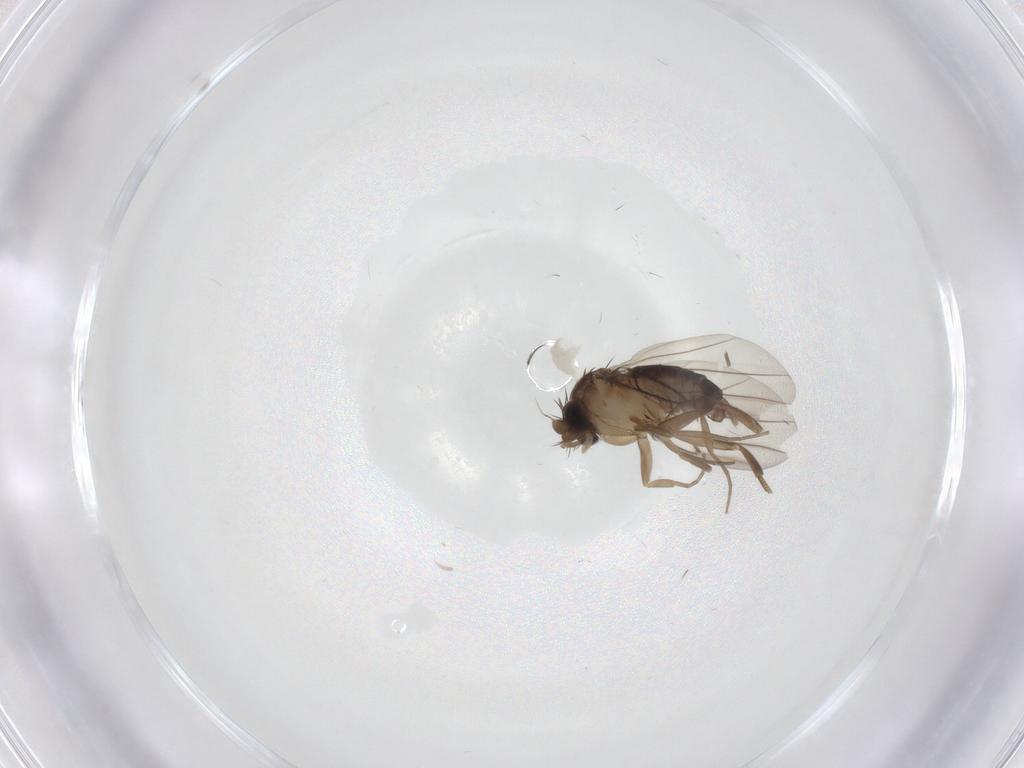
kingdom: Animalia
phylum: Arthropoda
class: Insecta
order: Diptera
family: Phoridae
